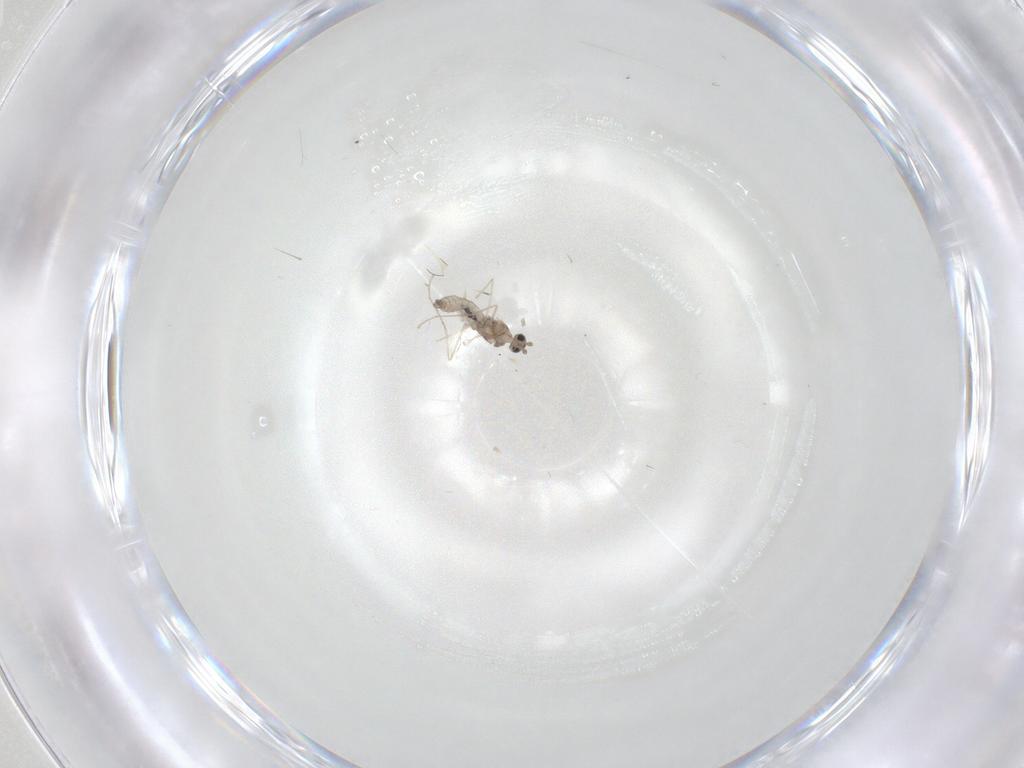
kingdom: Animalia
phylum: Arthropoda
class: Insecta
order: Diptera
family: Cecidomyiidae
